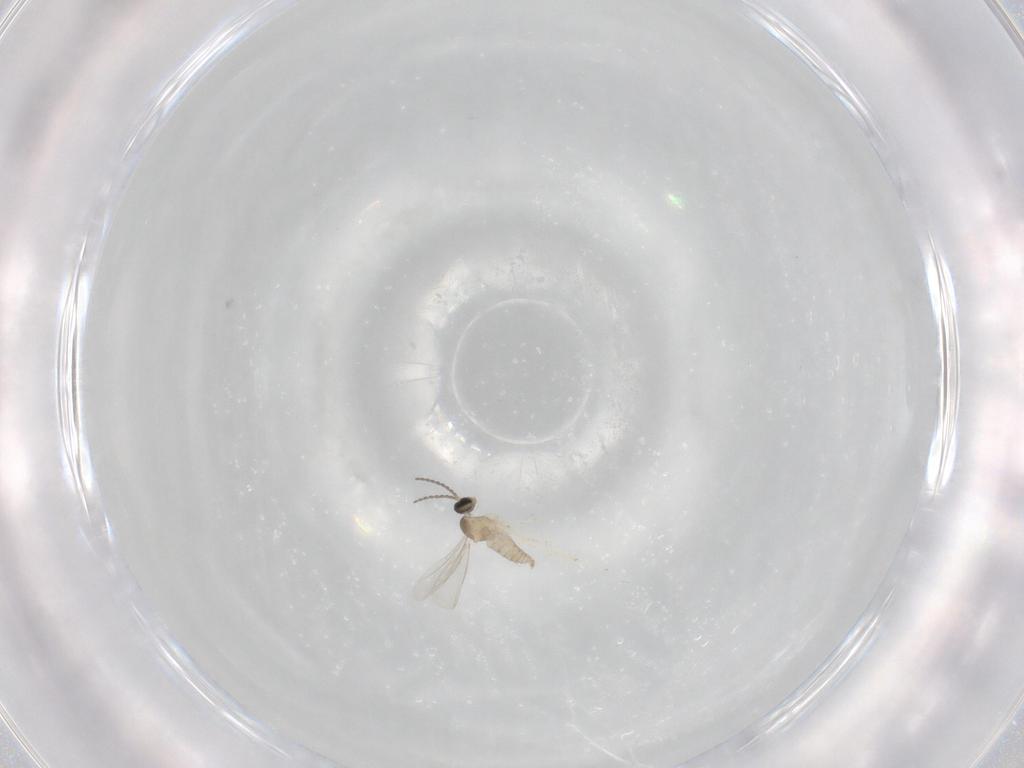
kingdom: Animalia
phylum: Arthropoda
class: Insecta
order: Diptera
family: Cecidomyiidae
